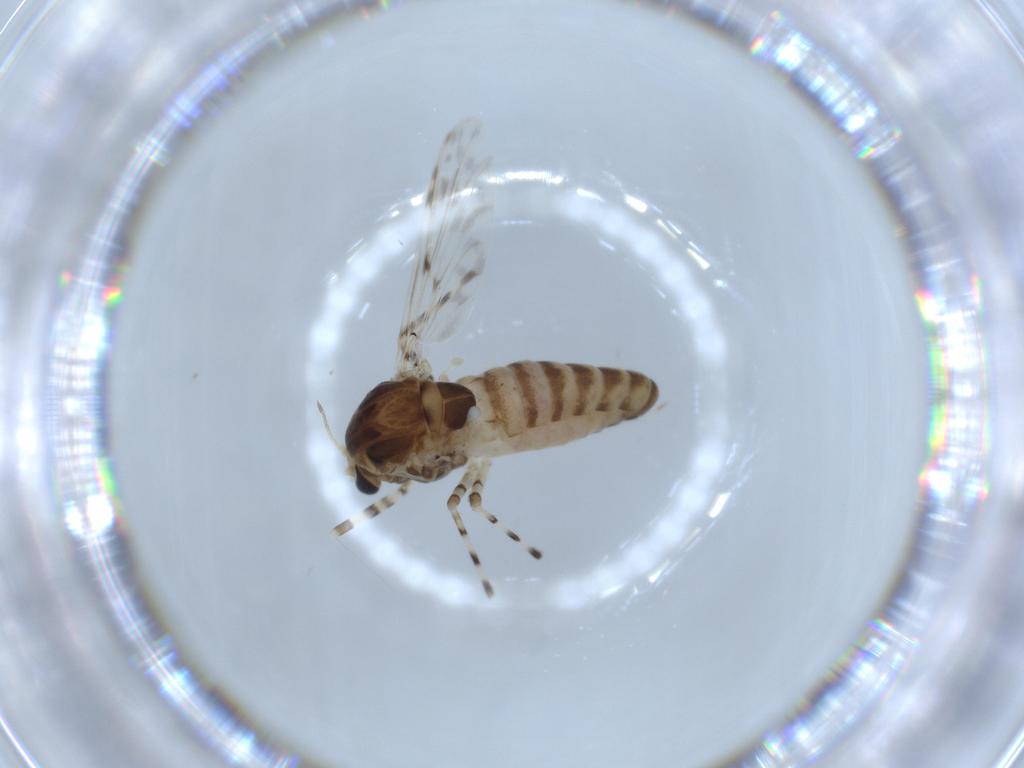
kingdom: Animalia
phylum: Arthropoda
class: Insecta
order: Diptera
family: Chironomidae
